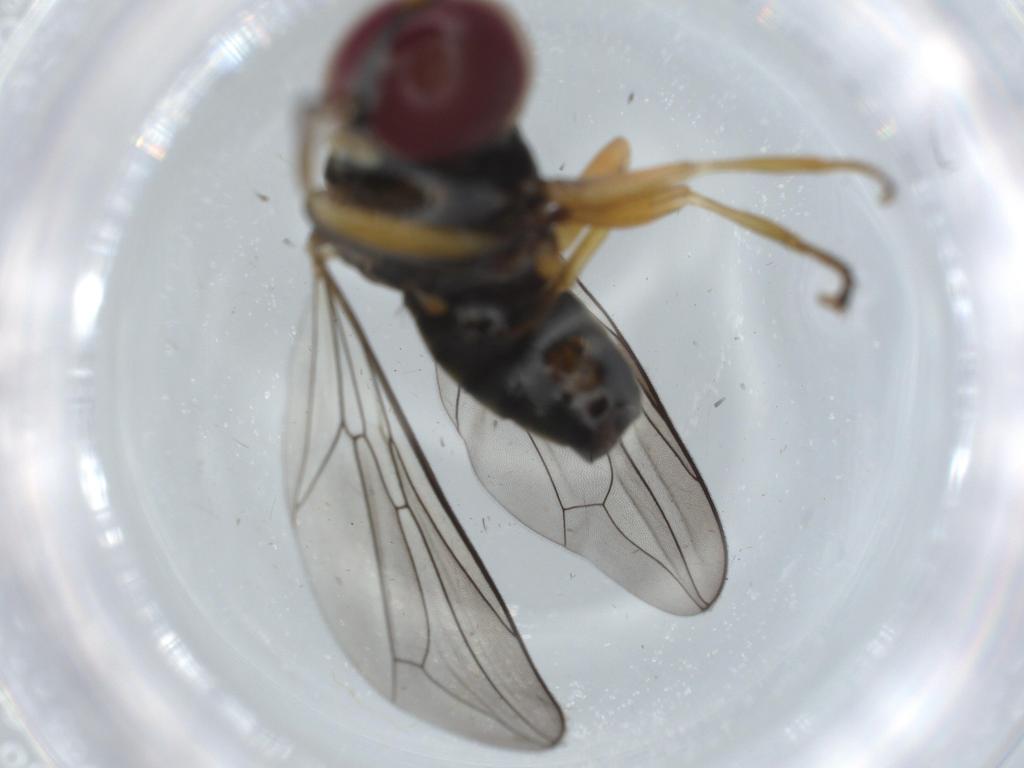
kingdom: Animalia
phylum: Arthropoda
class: Insecta
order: Diptera
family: Pipunculidae
